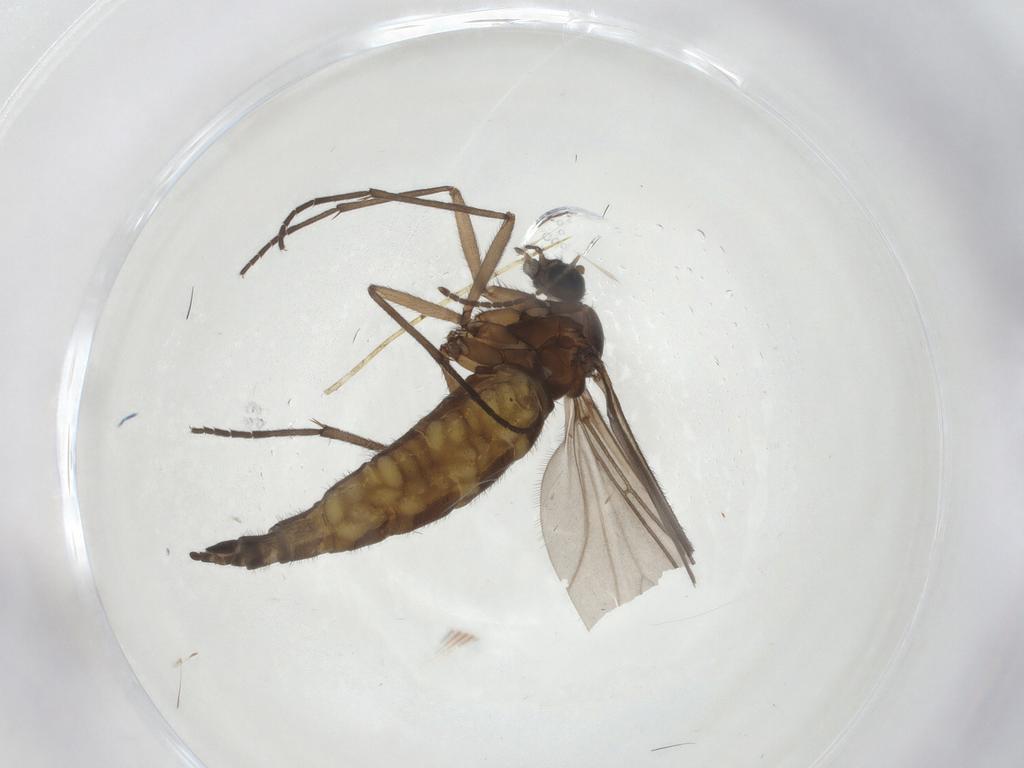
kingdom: Animalia
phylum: Arthropoda
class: Insecta
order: Diptera
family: Sciaridae
